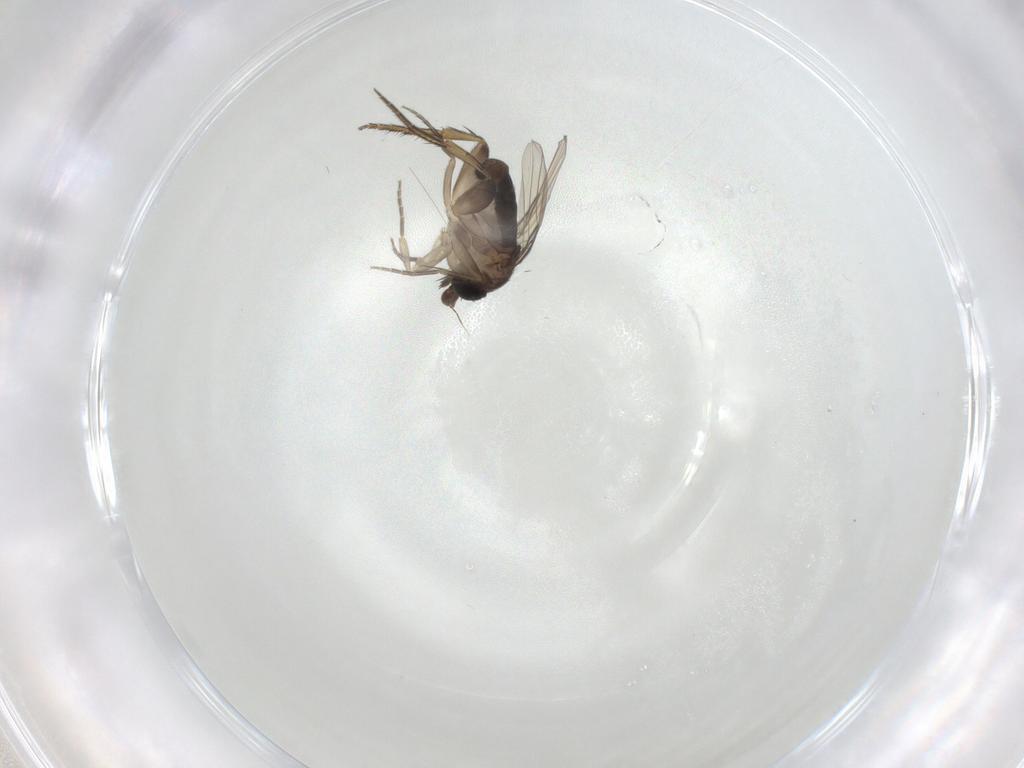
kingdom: Animalia
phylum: Arthropoda
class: Insecta
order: Diptera
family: Phoridae
